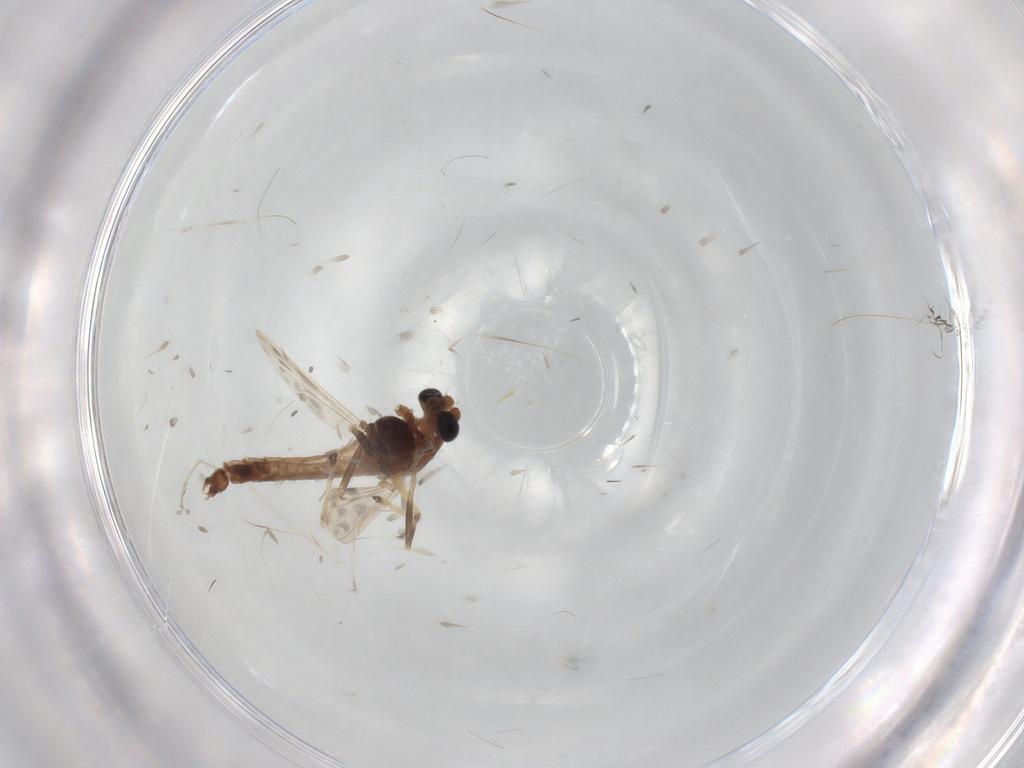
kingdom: Animalia
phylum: Arthropoda
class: Insecta
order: Diptera
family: Chironomidae
